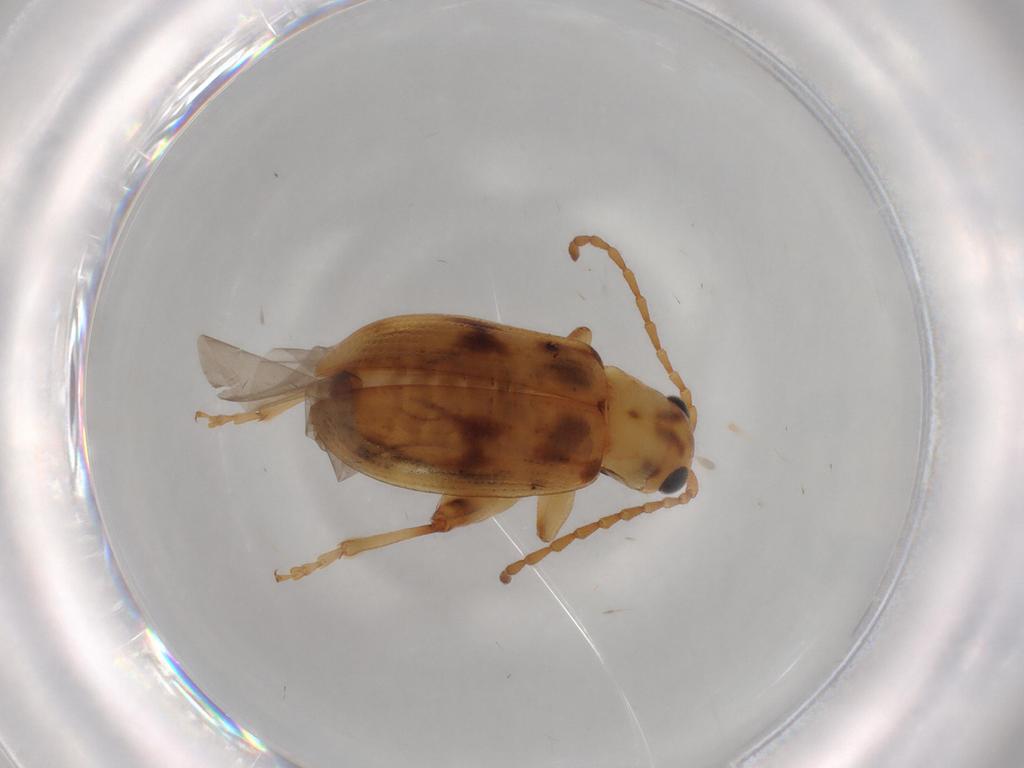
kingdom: Animalia
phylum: Arthropoda
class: Insecta
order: Coleoptera
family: Chrysomelidae
